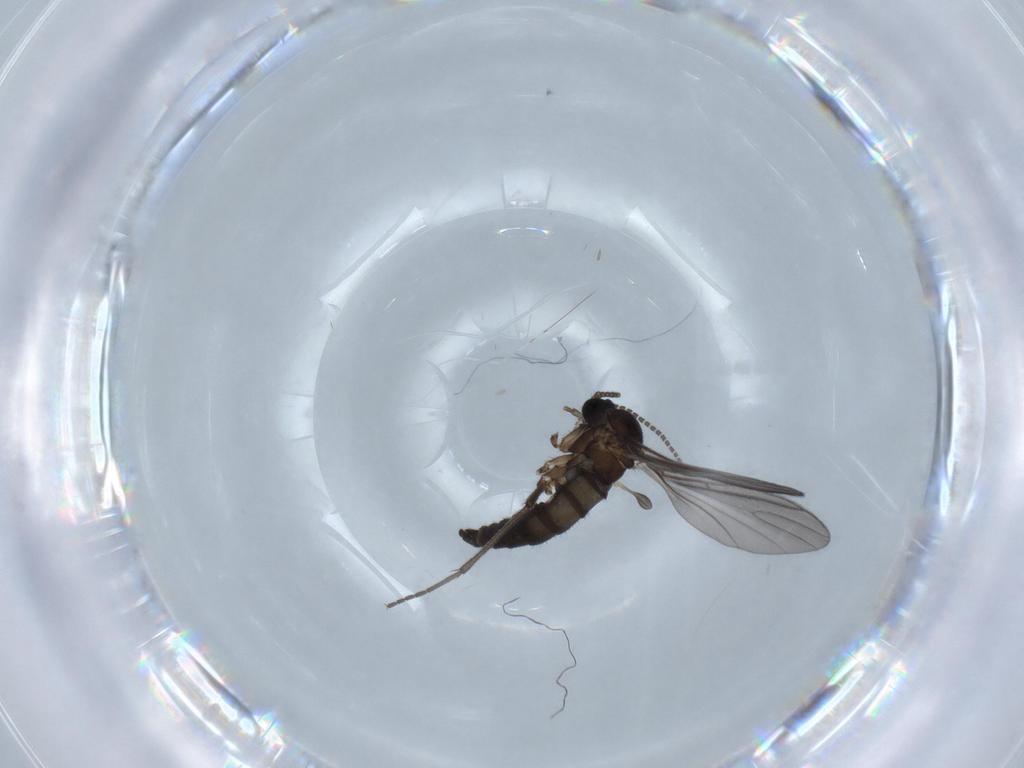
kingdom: Animalia
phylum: Arthropoda
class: Insecta
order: Diptera
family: Sciaridae
